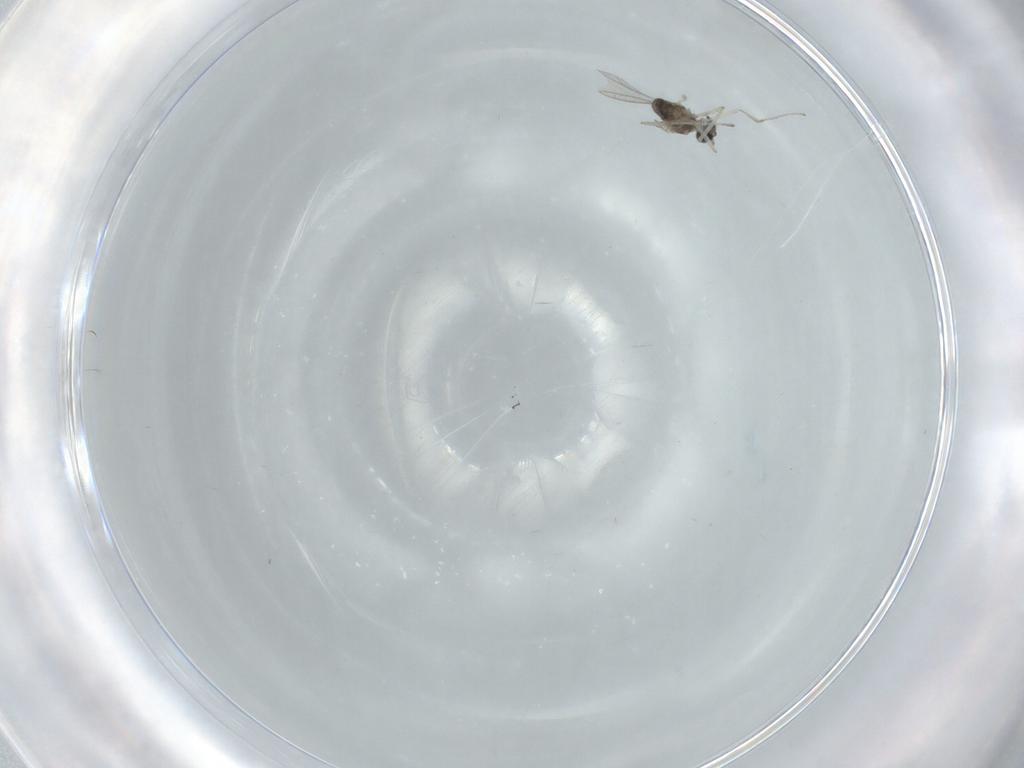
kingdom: Animalia
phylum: Arthropoda
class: Insecta
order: Diptera
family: Cecidomyiidae
